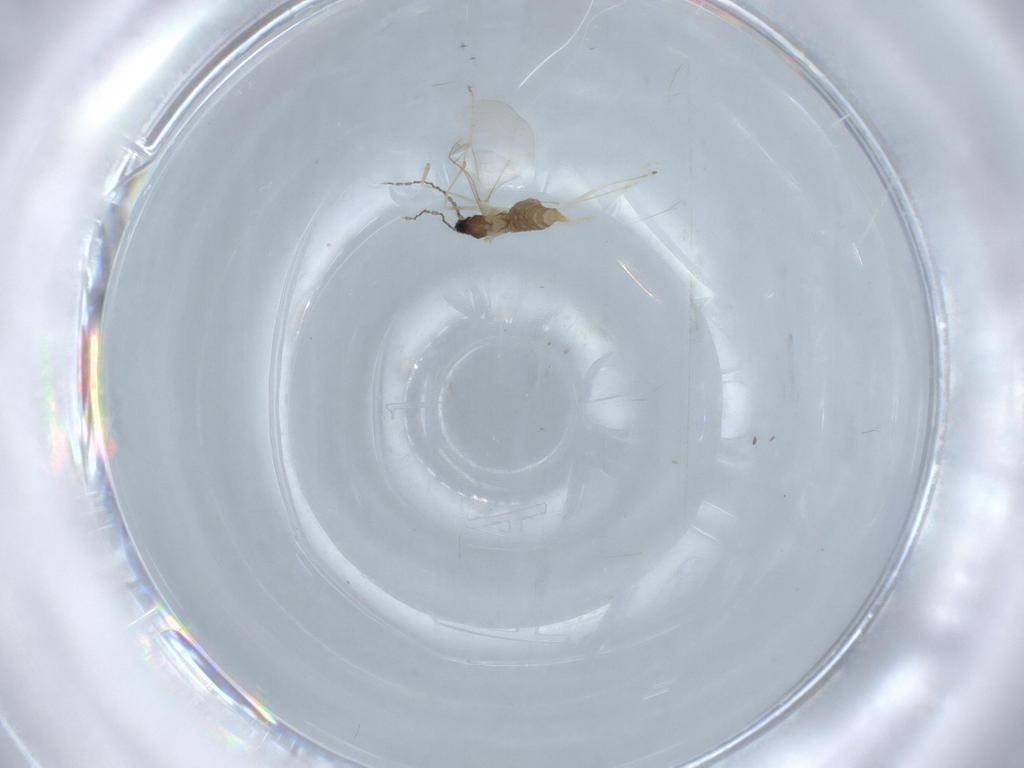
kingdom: Animalia
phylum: Arthropoda
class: Insecta
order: Diptera
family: Cecidomyiidae
